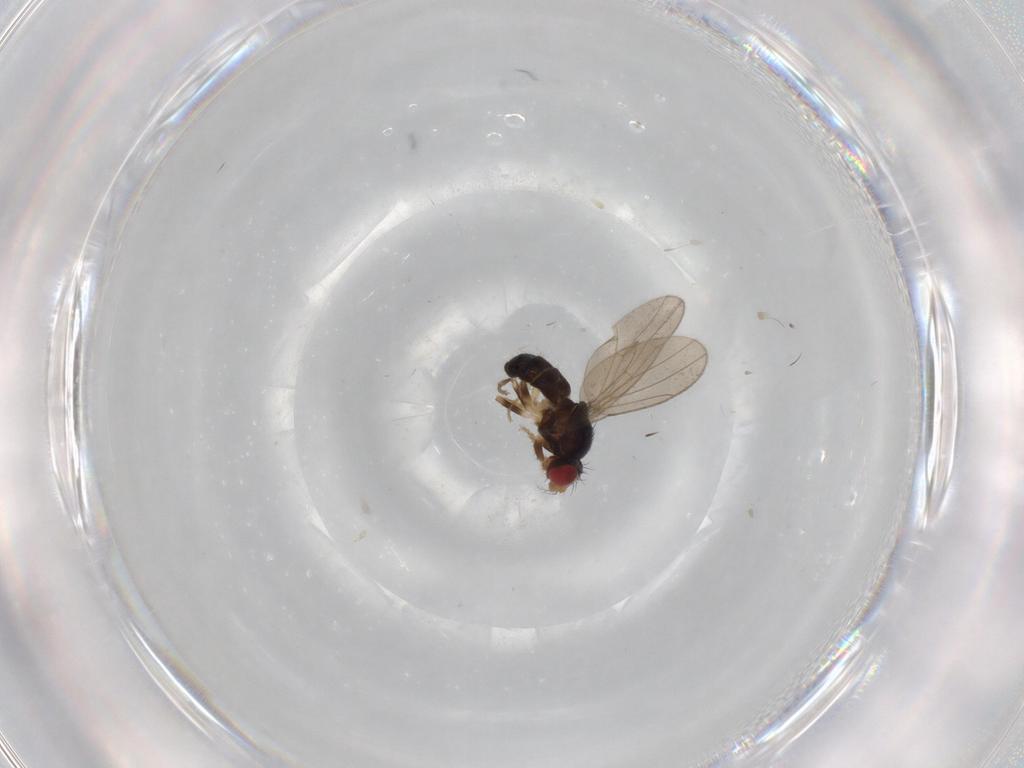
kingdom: Animalia
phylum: Arthropoda
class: Insecta
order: Diptera
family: Drosophilidae
